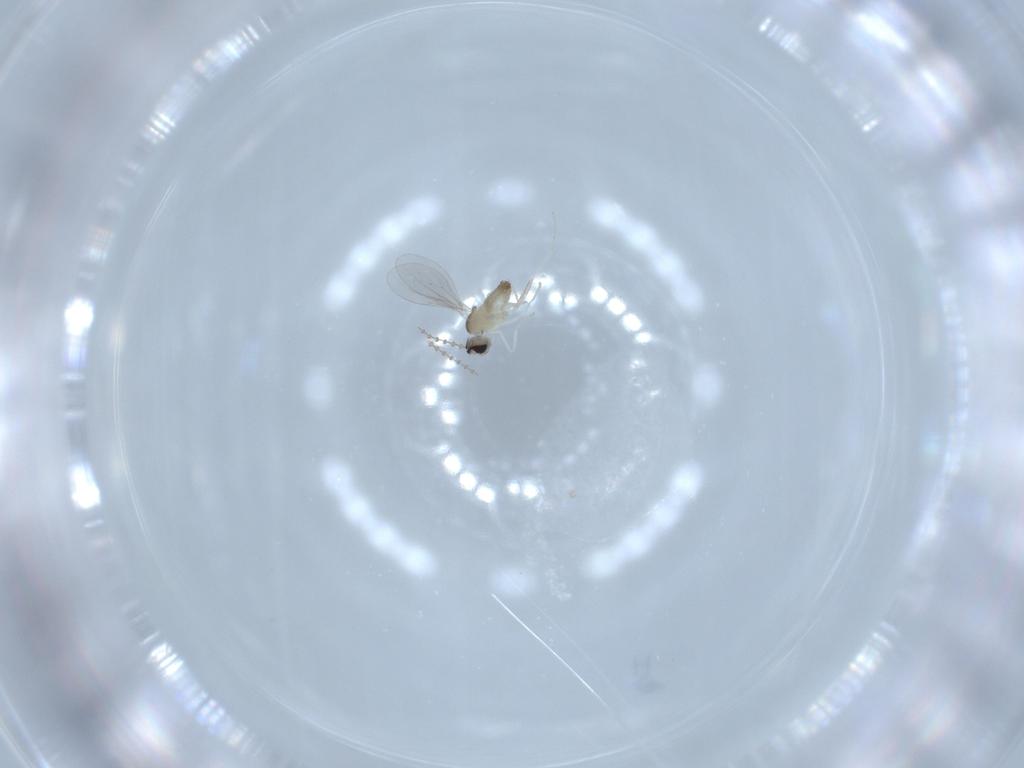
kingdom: Animalia
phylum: Arthropoda
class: Insecta
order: Diptera
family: Cecidomyiidae
